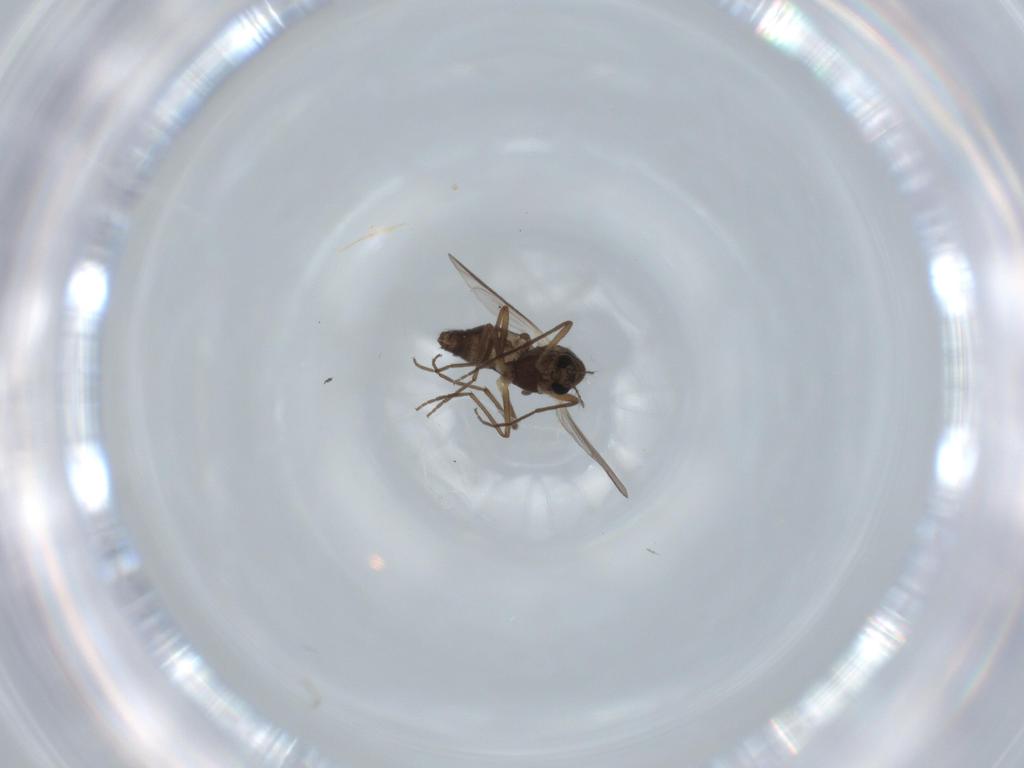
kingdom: Animalia
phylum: Arthropoda
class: Insecta
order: Diptera
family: Chironomidae
